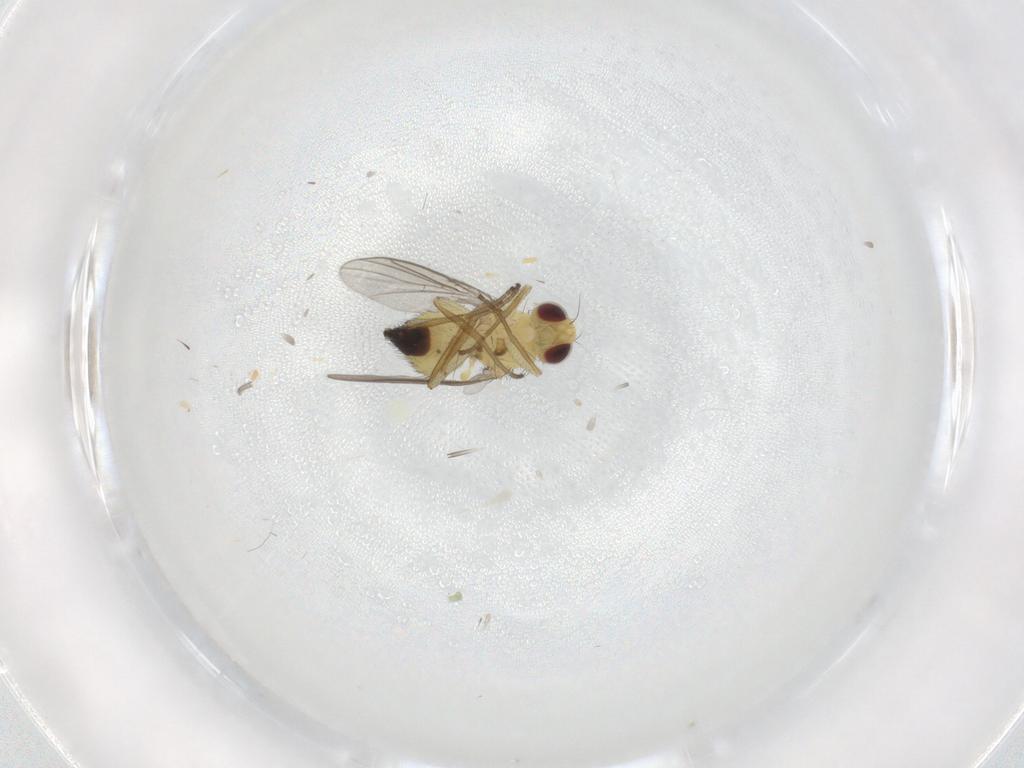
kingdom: Animalia
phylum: Arthropoda
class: Insecta
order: Diptera
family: Agromyzidae
